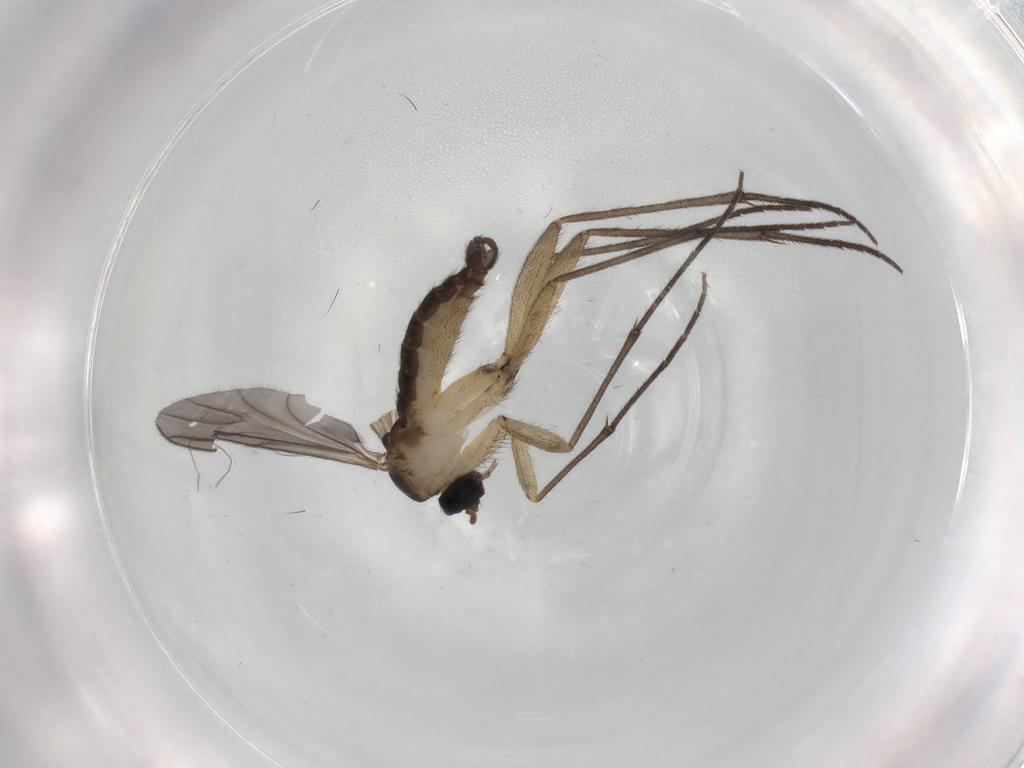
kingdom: Animalia
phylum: Arthropoda
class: Insecta
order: Diptera
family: Sciaridae
